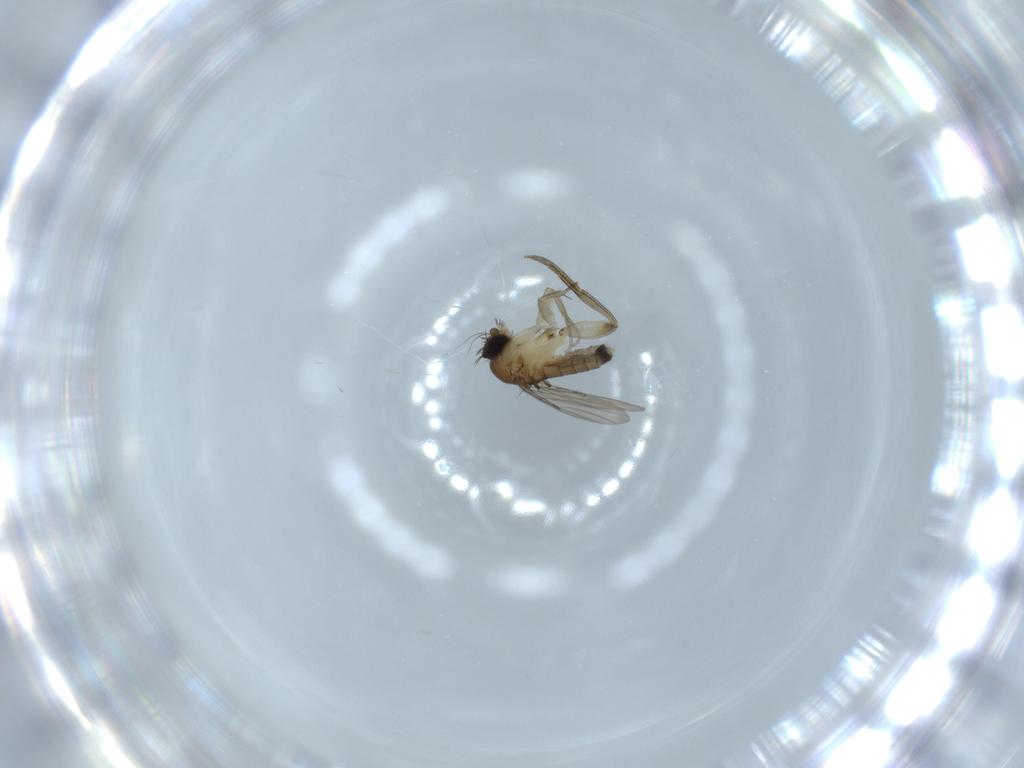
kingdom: Animalia
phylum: Arthropoda
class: Insecta
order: Diptera
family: Phoridae
